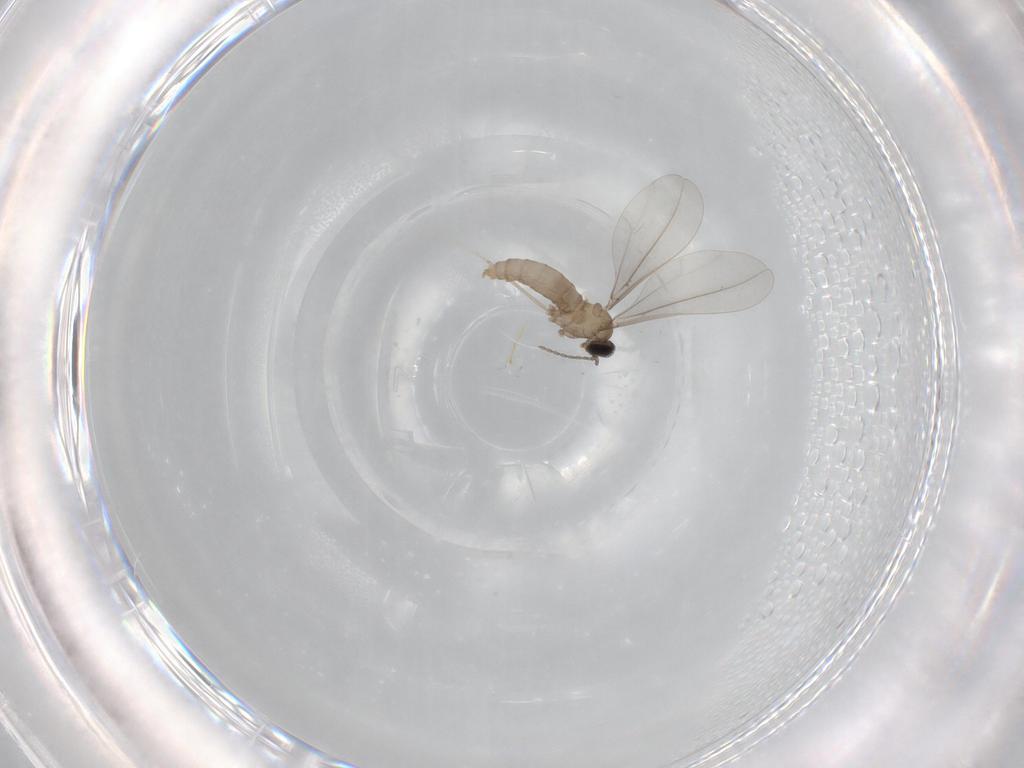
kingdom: Animalia
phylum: Arthropoda
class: Insecta
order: Diptera
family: Cecidomyiidae
